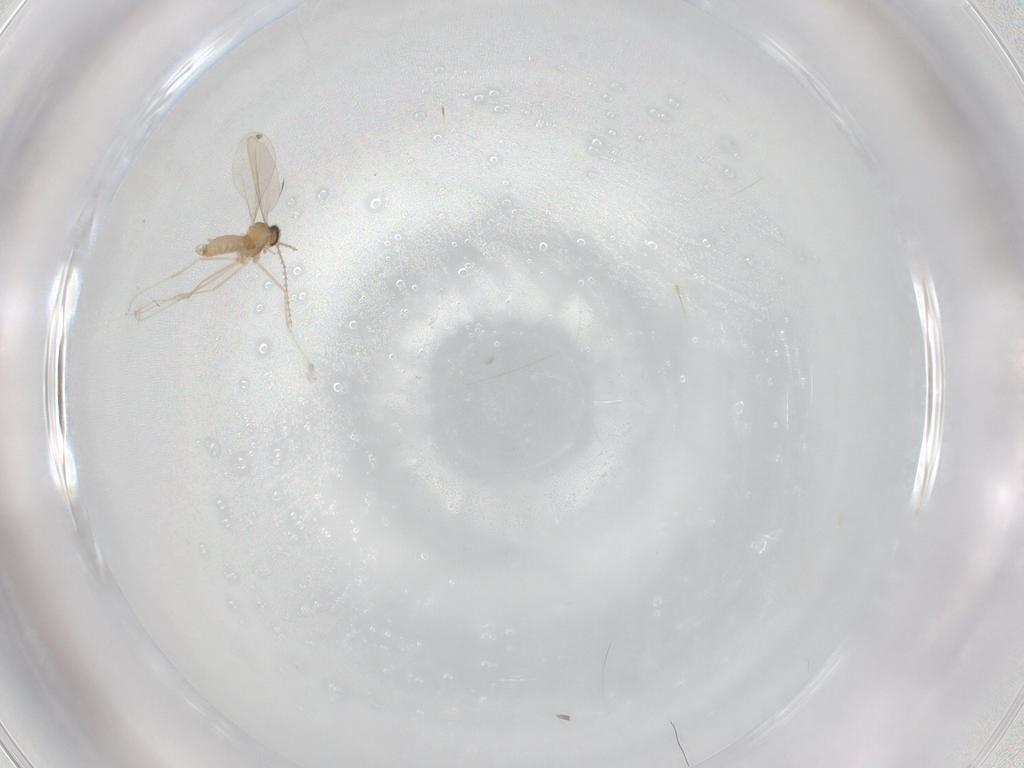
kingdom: Animalia
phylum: Arthropoda
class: Insecta
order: Diptera
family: Cecidomyiidae
